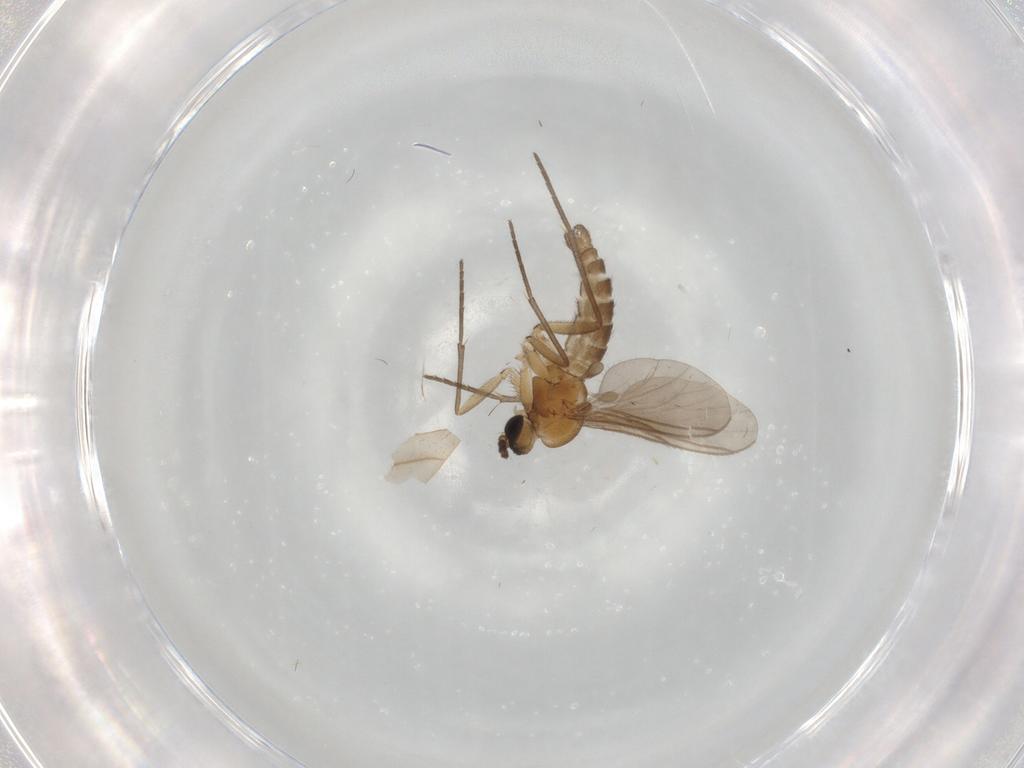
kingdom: Animalia
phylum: Arthropoda
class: Insecta
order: Diptera
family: Sciaridae
